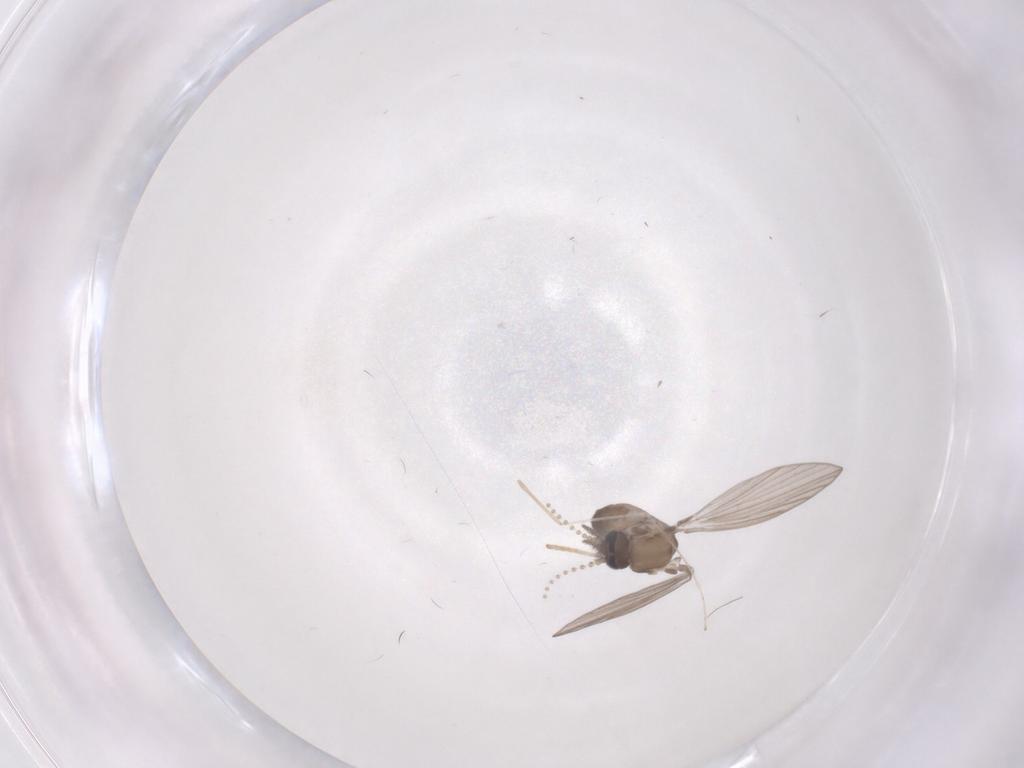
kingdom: Animalia
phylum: Arthropoda
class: Insecta
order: Diptera
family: Psychodidae
